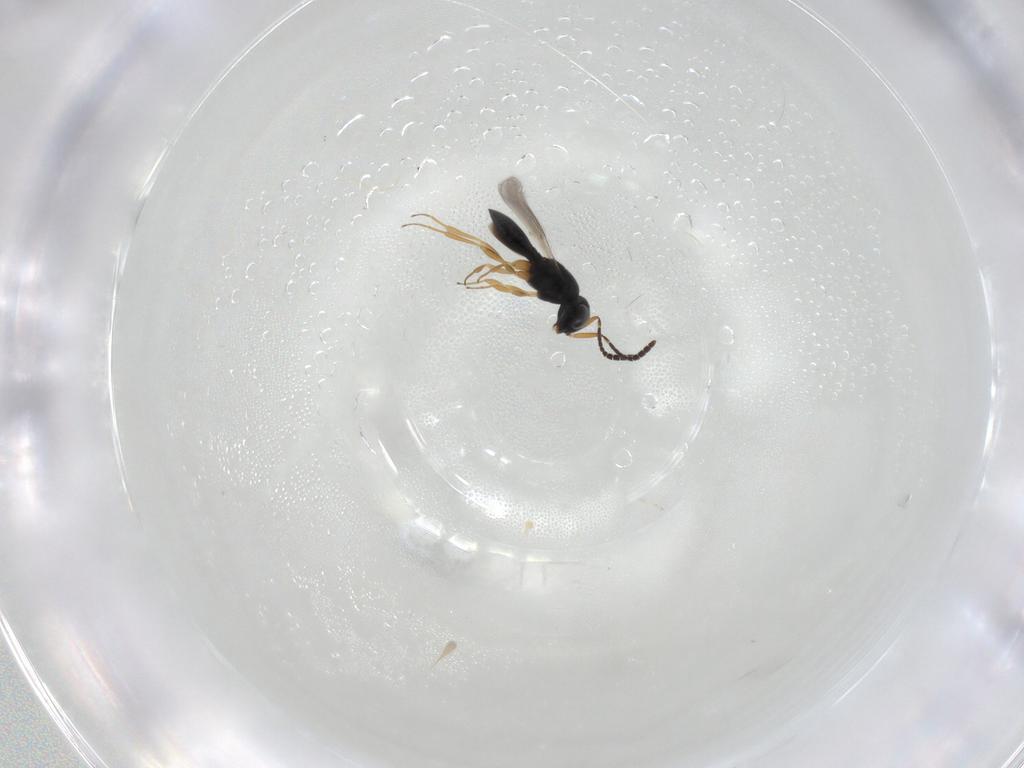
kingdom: Animalia
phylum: Arthropoda
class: Insecta
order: Hymenoptera
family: Scelionidae
